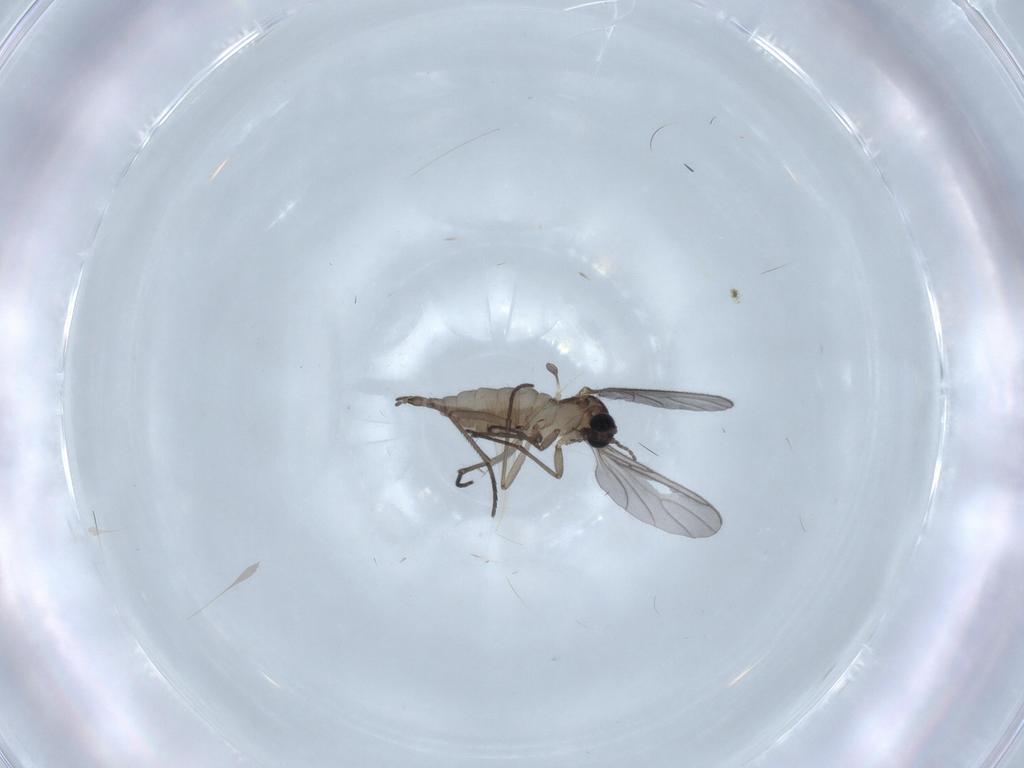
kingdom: Animalia
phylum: Arthropoda
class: Insecta
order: Diptera
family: Sciaridae
